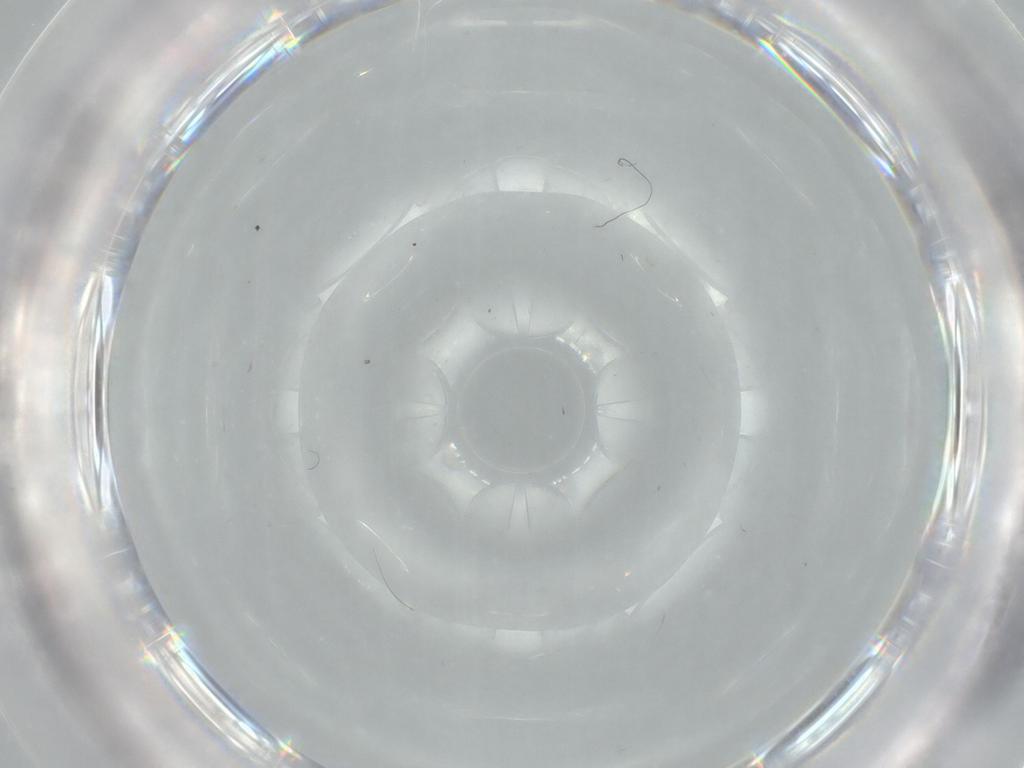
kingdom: Animalia
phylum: Arthropoda
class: Arachnida
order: Trombidiformes
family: Rhagidiidae
